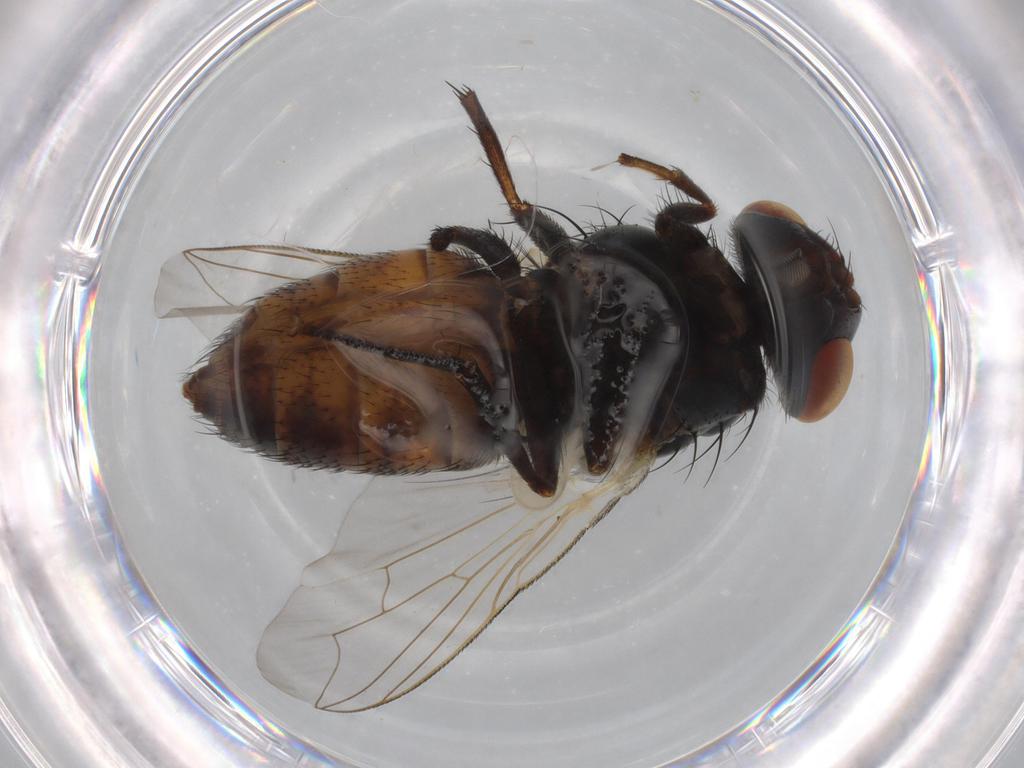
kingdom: Animalia
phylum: Arthropoda
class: Insecta
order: Diptera
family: Sarcophagidae
